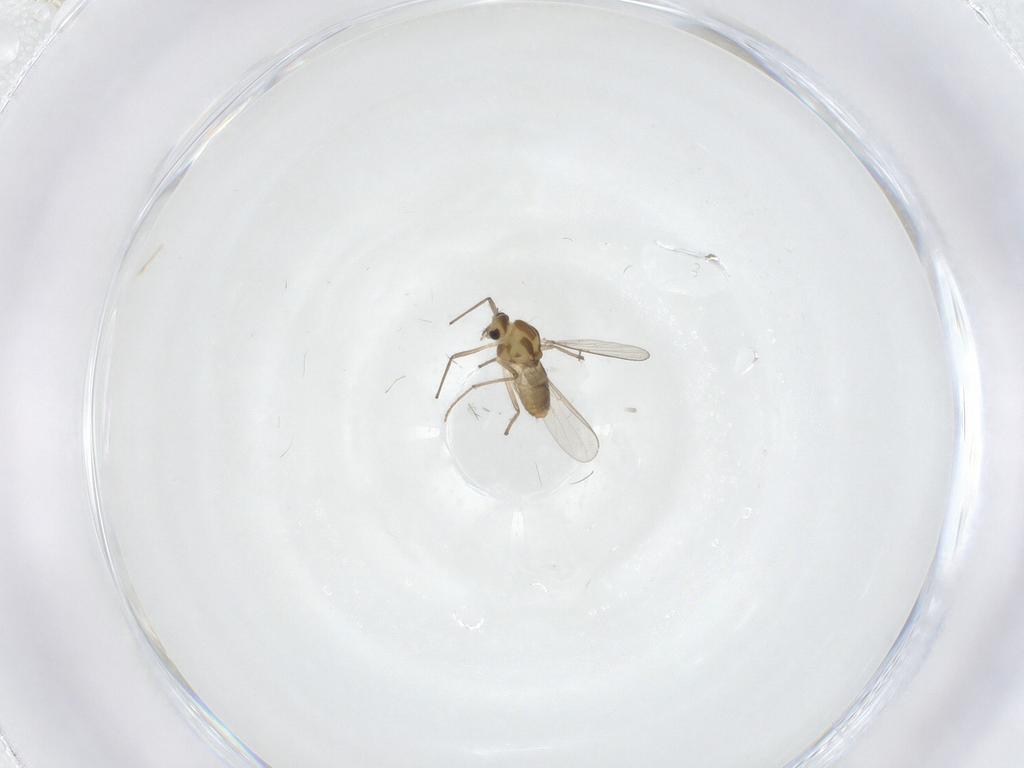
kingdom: Animalia
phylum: Arthropoda
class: Insecta
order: Diptera
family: Chironomidae
